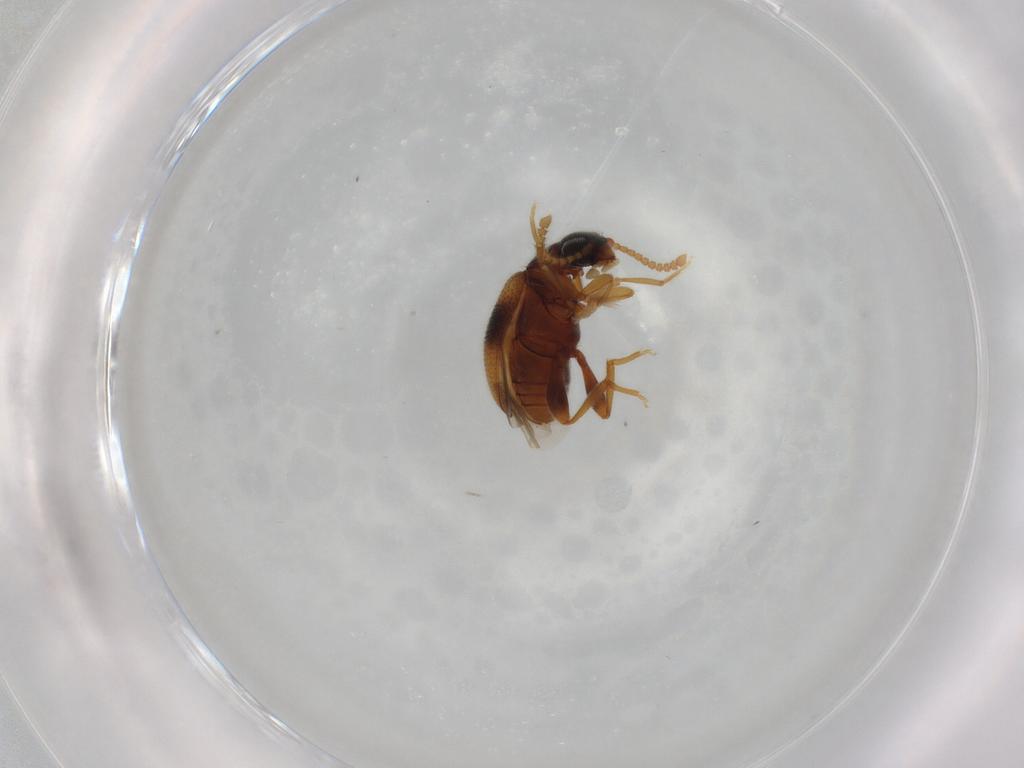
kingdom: Animalia
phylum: Arthropoda
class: Insecta
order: Coleoptera
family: Aderidae
